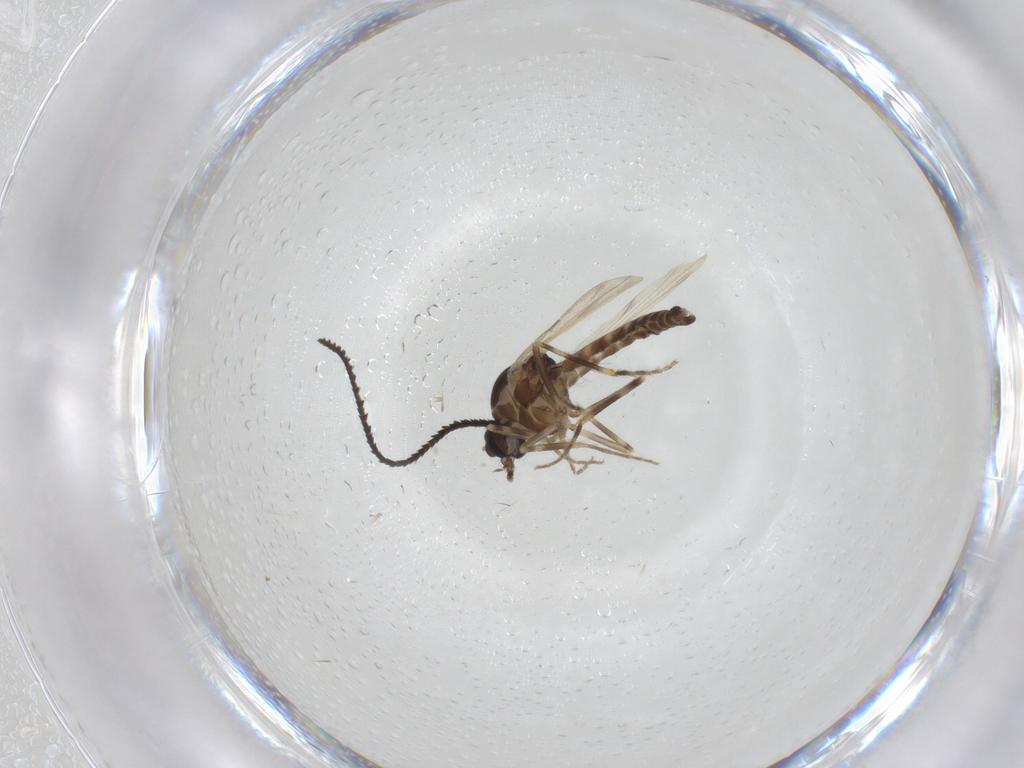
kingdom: Animalia
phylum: Arthropoda
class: Insecta
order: Diptera
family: Ceratopogonidae
